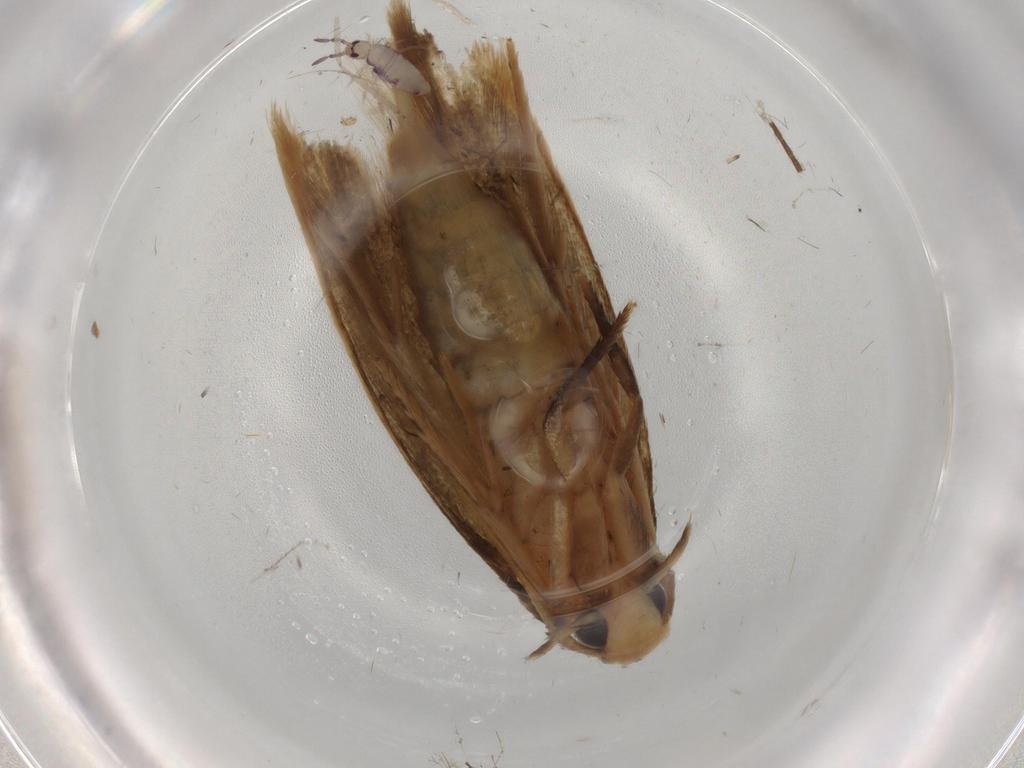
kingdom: Animalia
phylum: Arthropoda
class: Insecta
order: Lepidoptera
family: Tineidae
